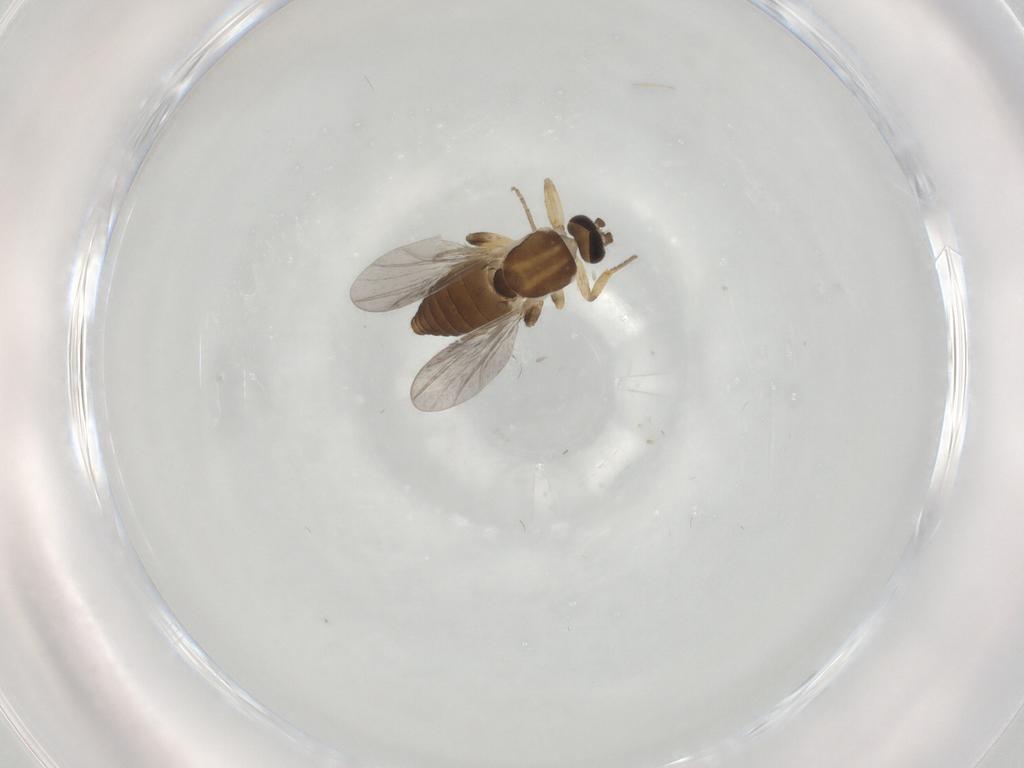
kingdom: Animalia
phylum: Arthropoda
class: Insecta
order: Diptera
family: Ceratopogonidae
